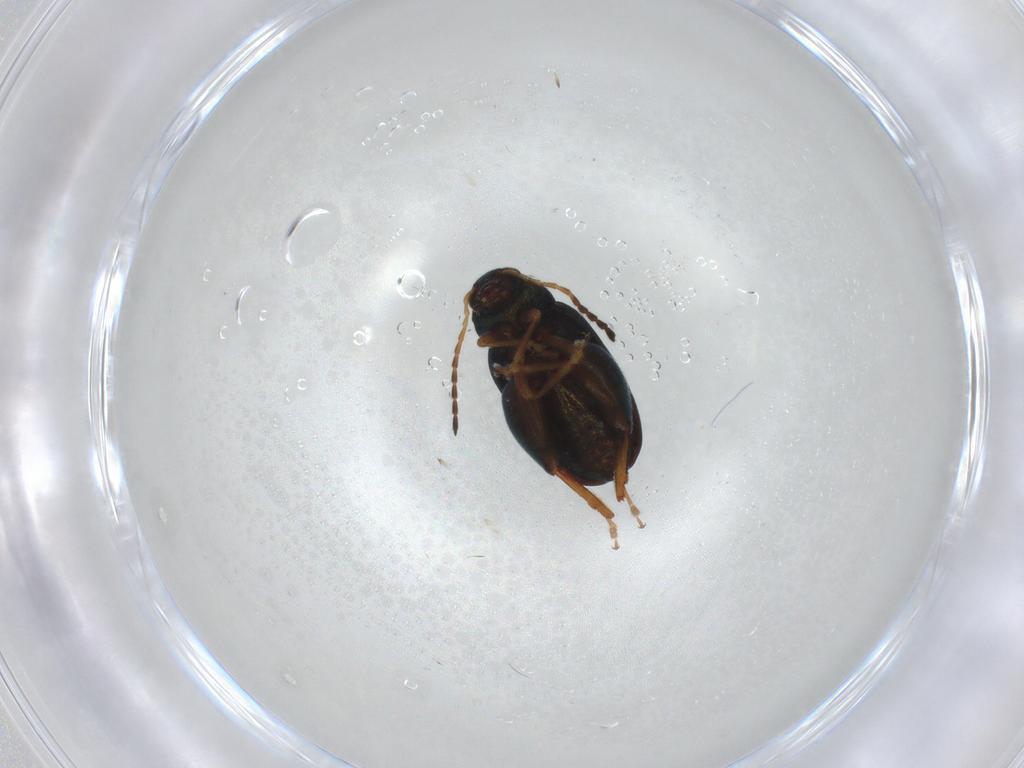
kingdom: Animalia
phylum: Arthropoda
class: Insecta
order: Coleoptera
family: Chrysomelidae
